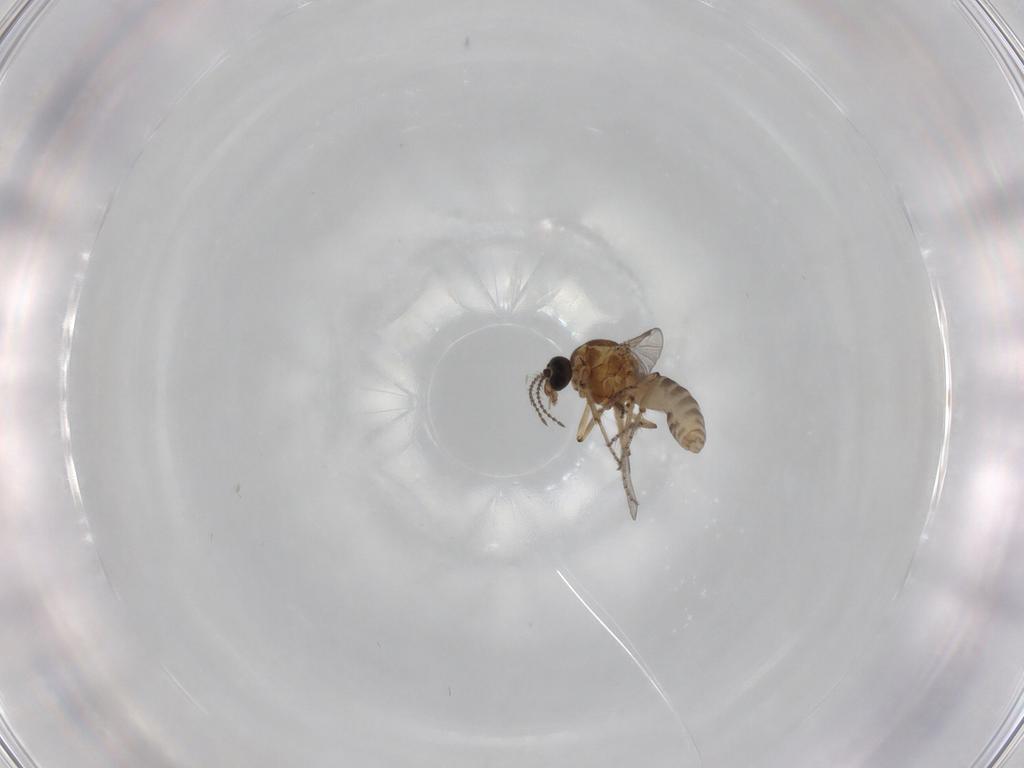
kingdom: Animalia
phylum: Arthropoda
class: Insecta
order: Diptera
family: Ceratopogonidae
